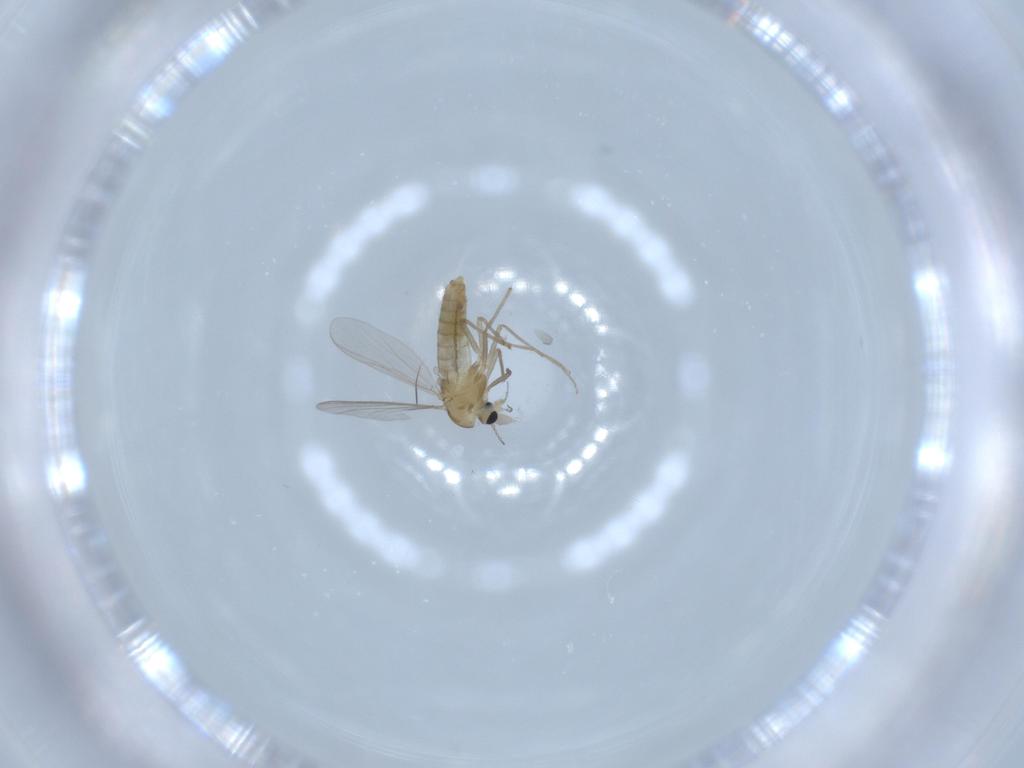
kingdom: Animalia
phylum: Arthropoda
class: Insecta
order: Diptera
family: Chironomidae
